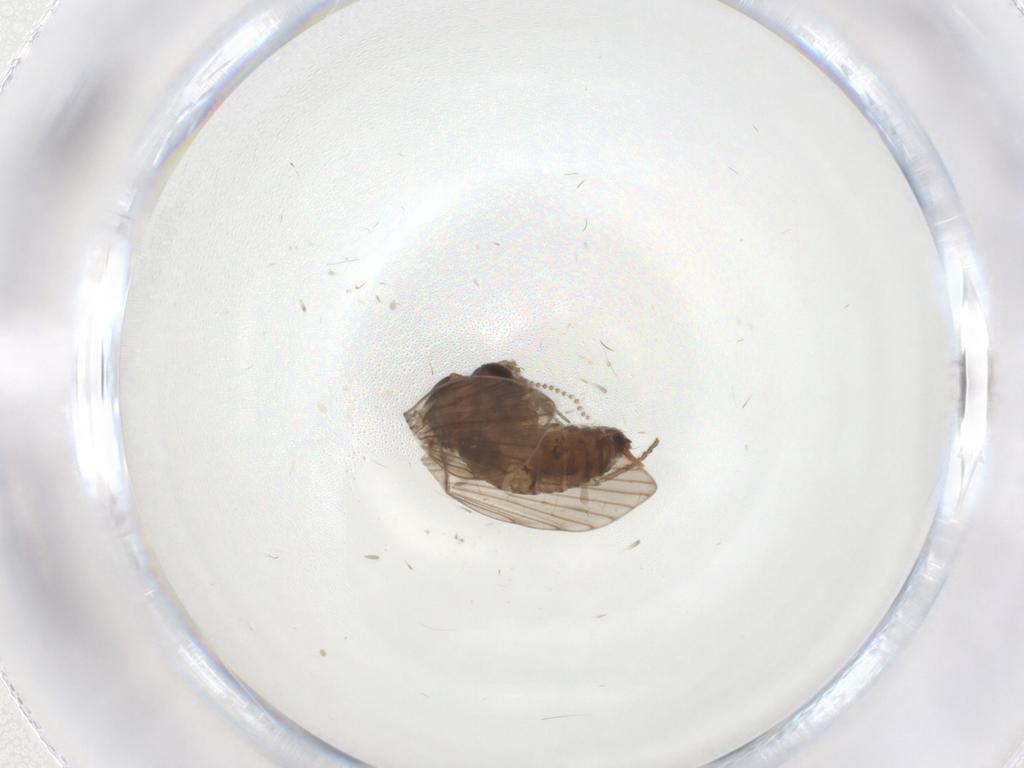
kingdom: Animalia
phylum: Arthropoda
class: Insecta
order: Diptera
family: Psychodidae
